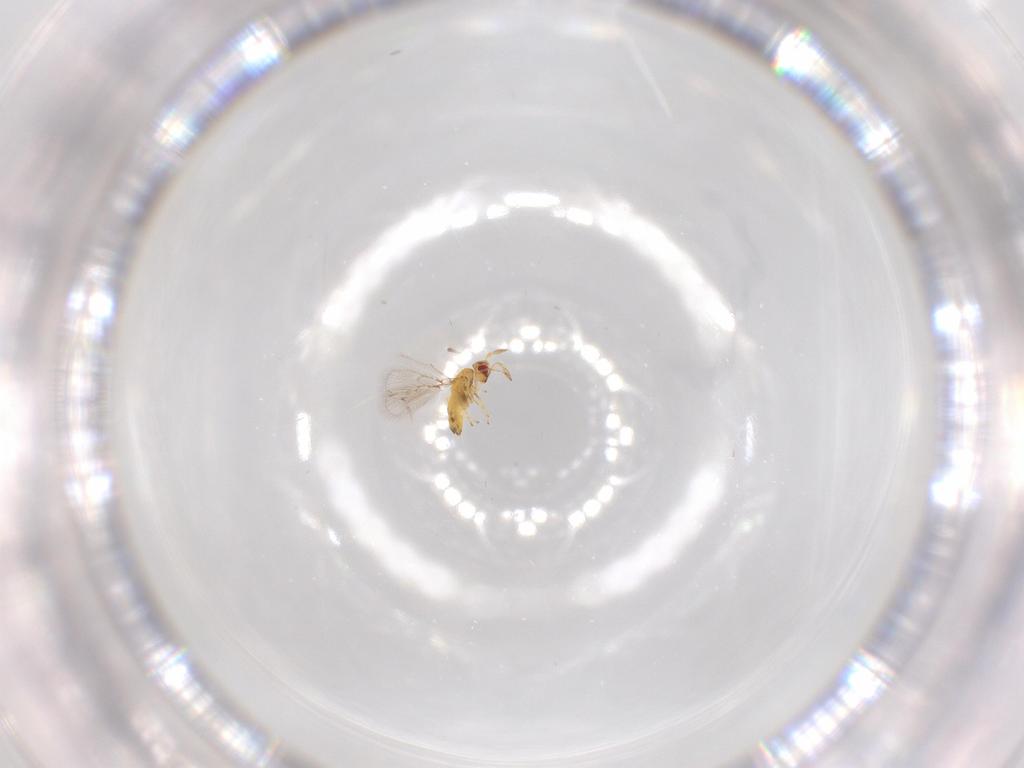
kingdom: Animalia
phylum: Arthropoda
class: Insecta
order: Hymenoptera
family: Trichogrammatidae
